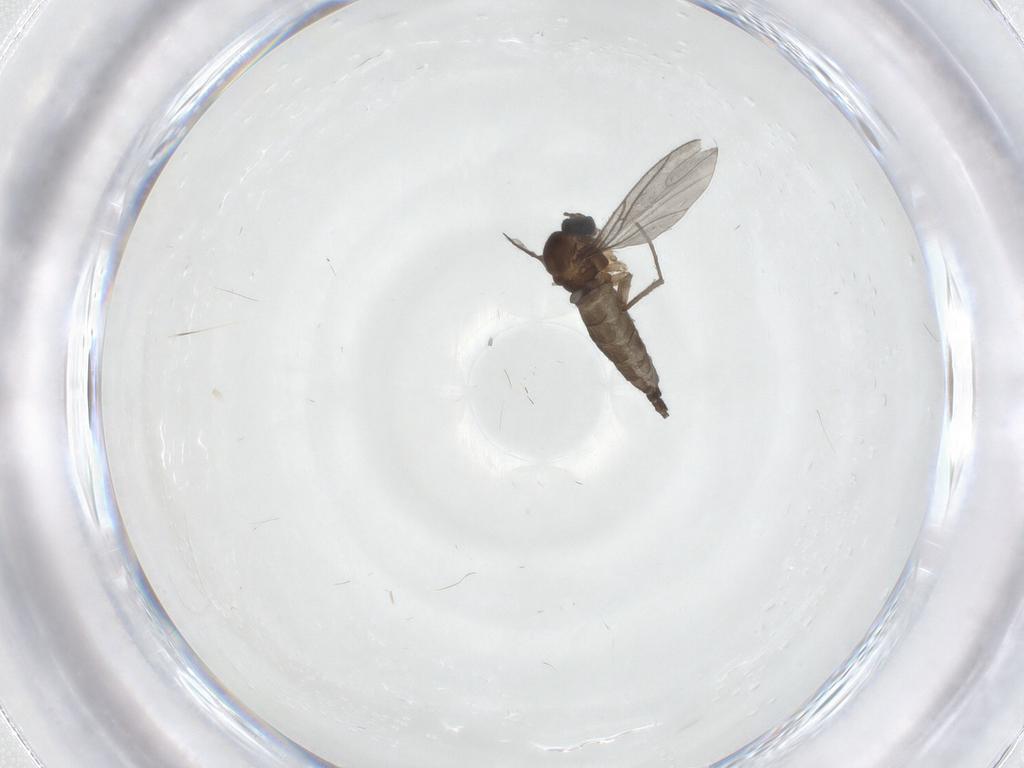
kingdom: Animalia
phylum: Arthropoda
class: Insecta
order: Diptera
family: Sciaridae
